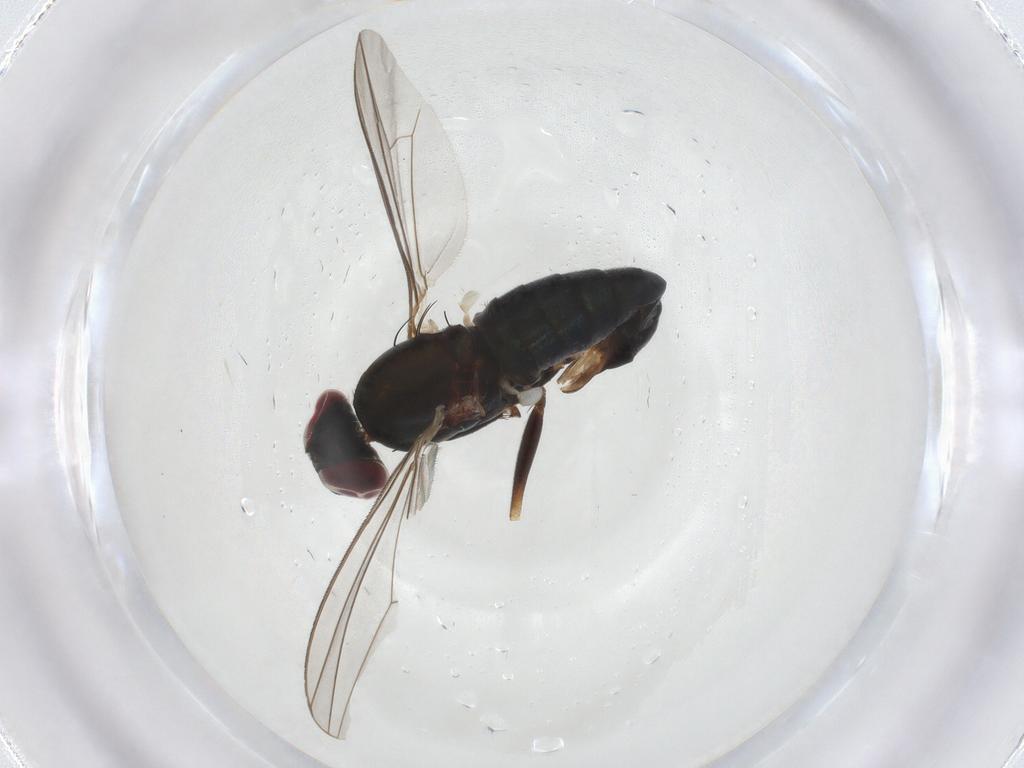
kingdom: Animalia
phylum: Arthropoda
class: Insecta
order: Diptera
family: Dolichopodidae
